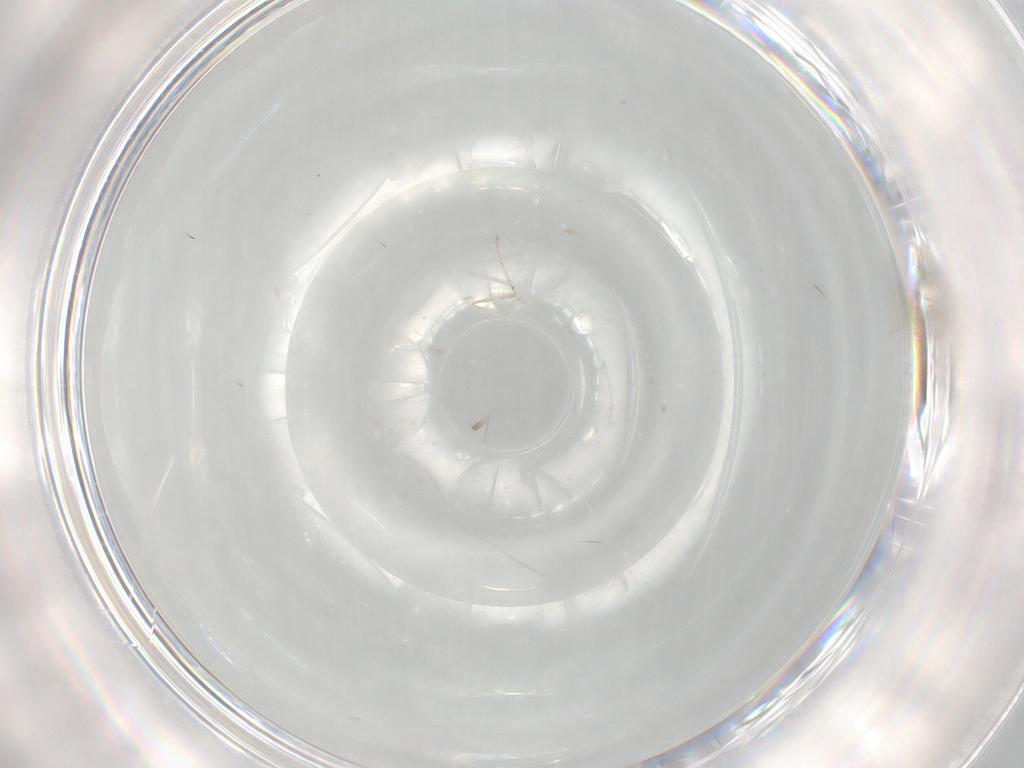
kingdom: Animalia
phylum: Arthropoda
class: Insecta
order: Diptera
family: Cecidomyiidae
